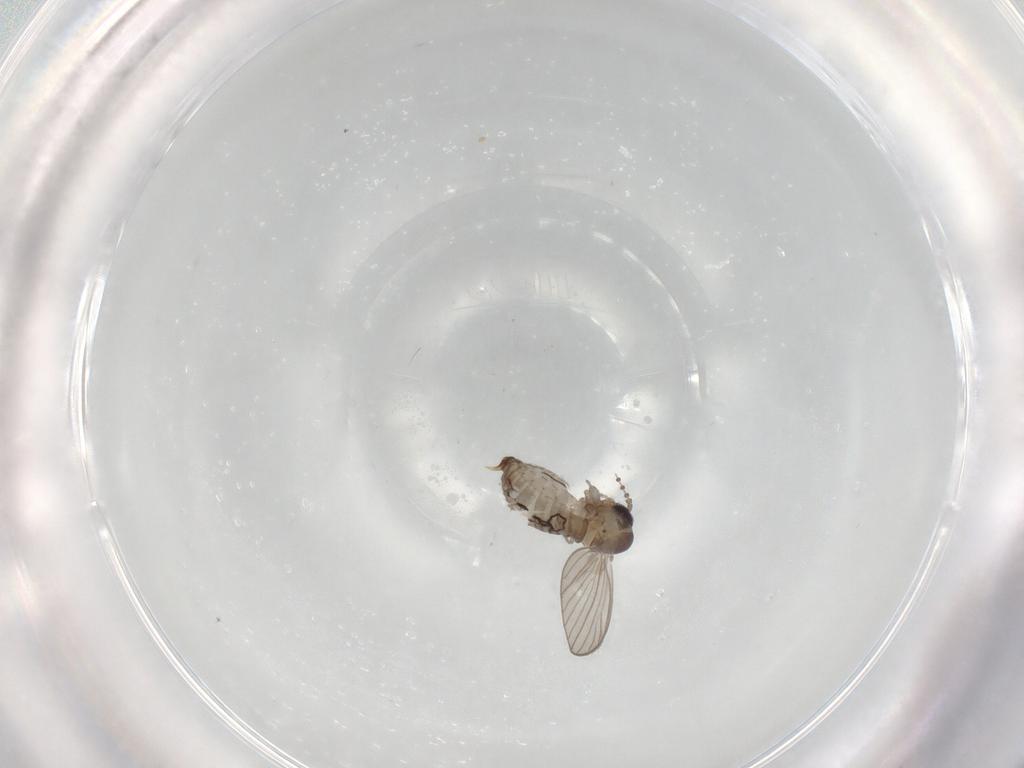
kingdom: Animalia
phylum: Arthropoda
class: Insecta
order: Diptera
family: Psychodidae
